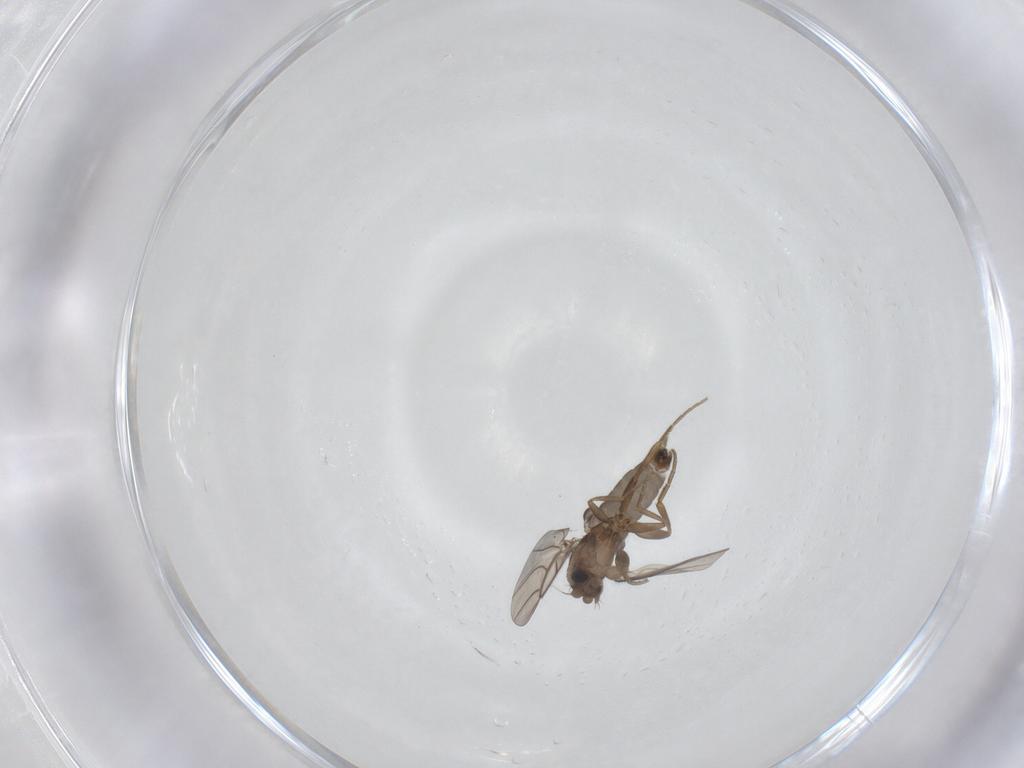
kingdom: Animalia
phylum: Arthropoda
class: Insecta
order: Diptera
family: Phoridae
